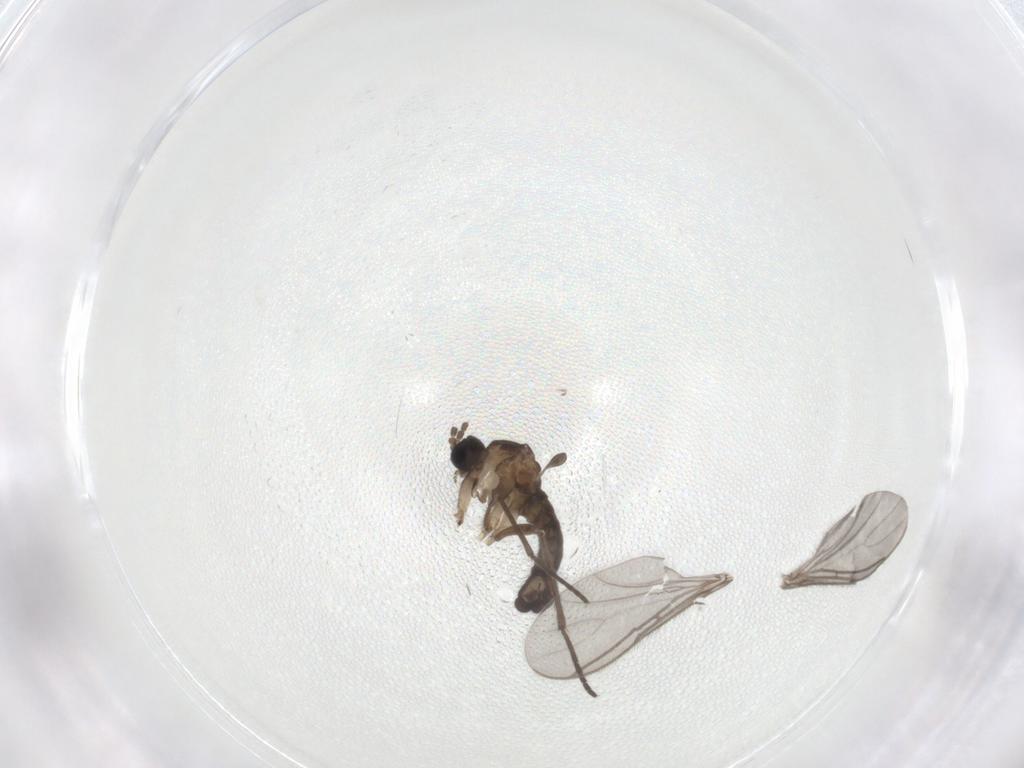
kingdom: Animalia
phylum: Arthropoda
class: Insecta
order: Diptera
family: Sciaridae
